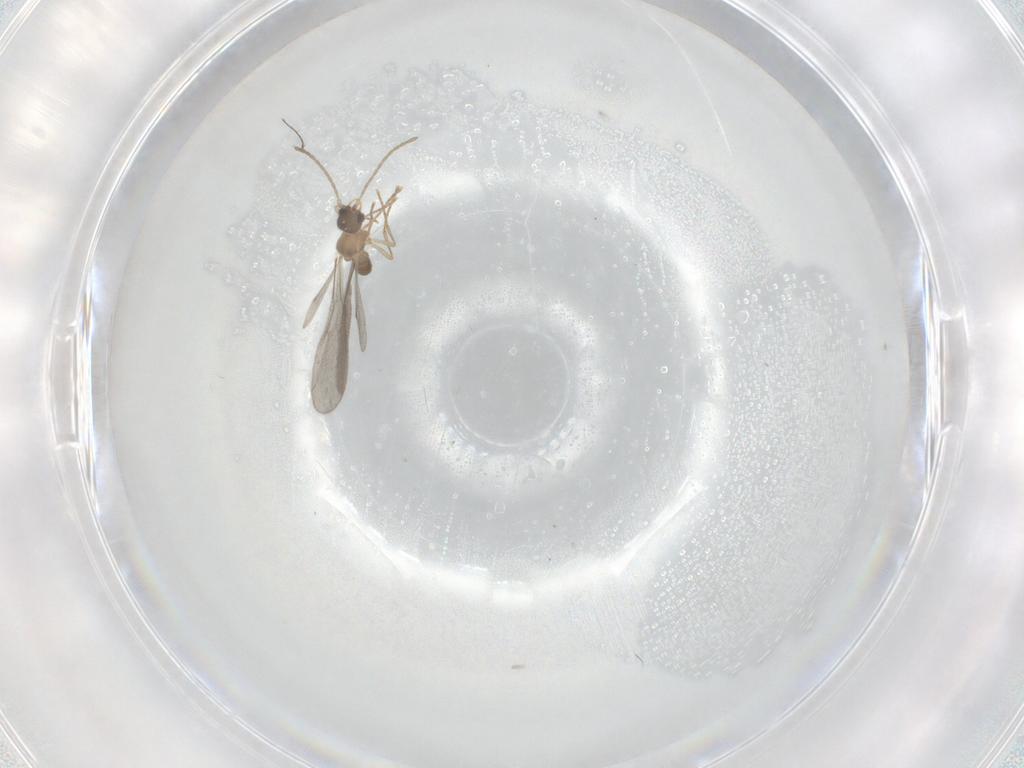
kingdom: Animalia
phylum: Arthropoda
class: Insecta
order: Hymenoptera
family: Formicidae
